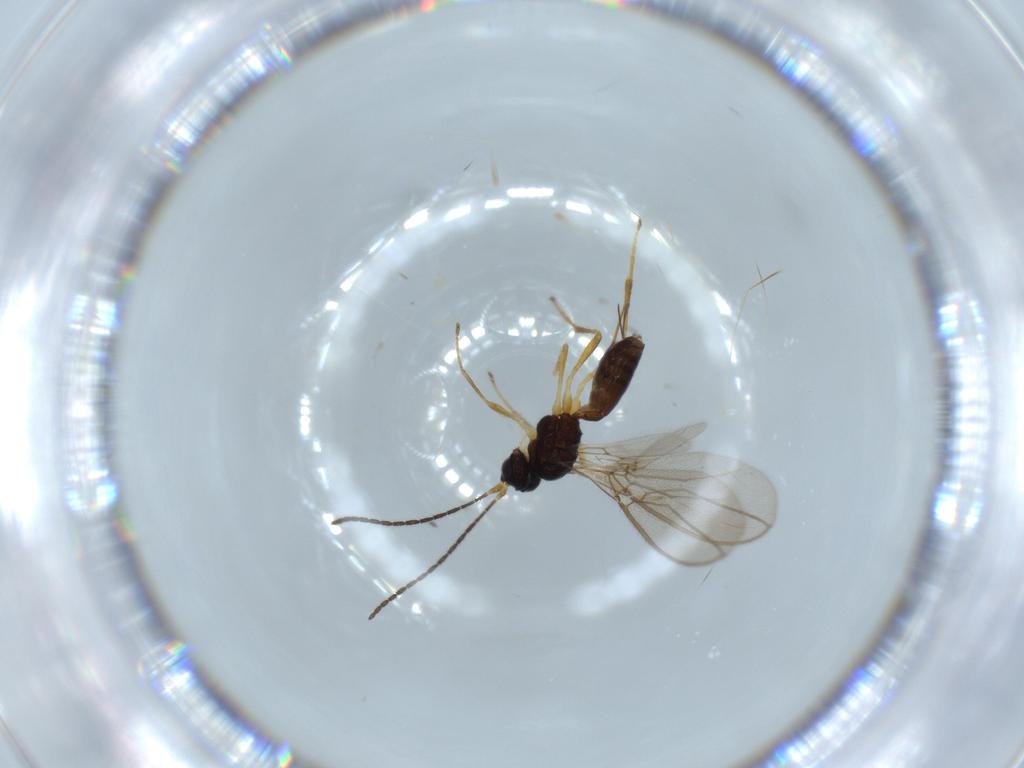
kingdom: Animalia
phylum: Arthropoda
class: Insecta
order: Hymenoptera
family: Braconidae
